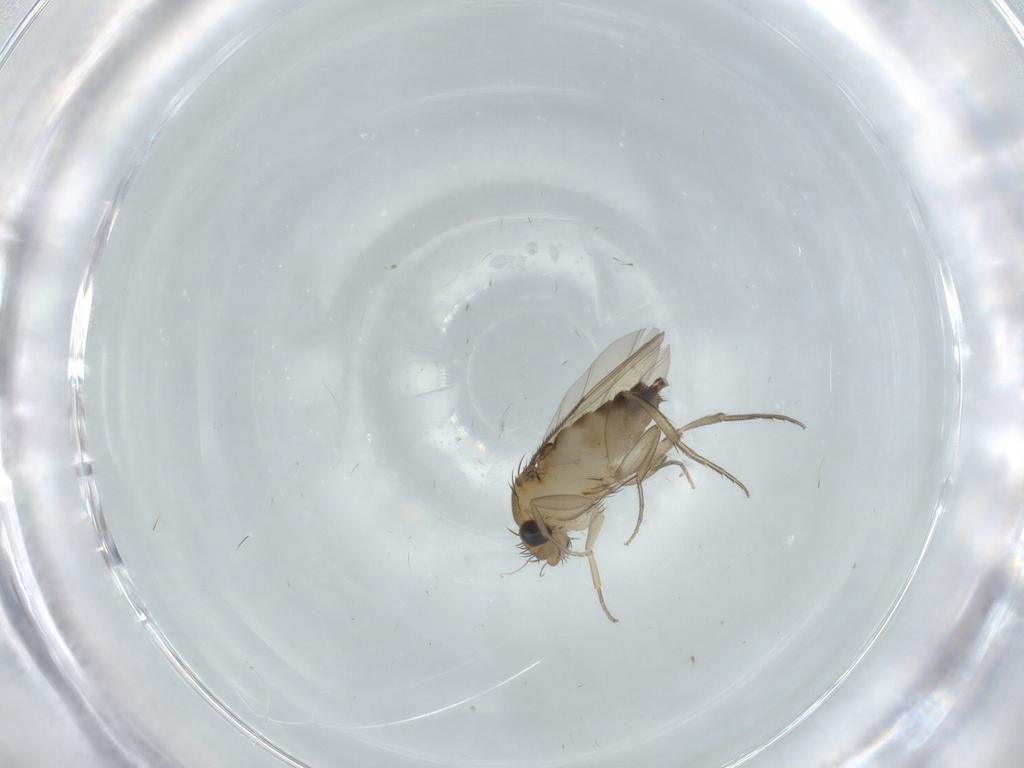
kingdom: Animalia
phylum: Arthropoda
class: Insecta
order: Diptera
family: Phoridae
